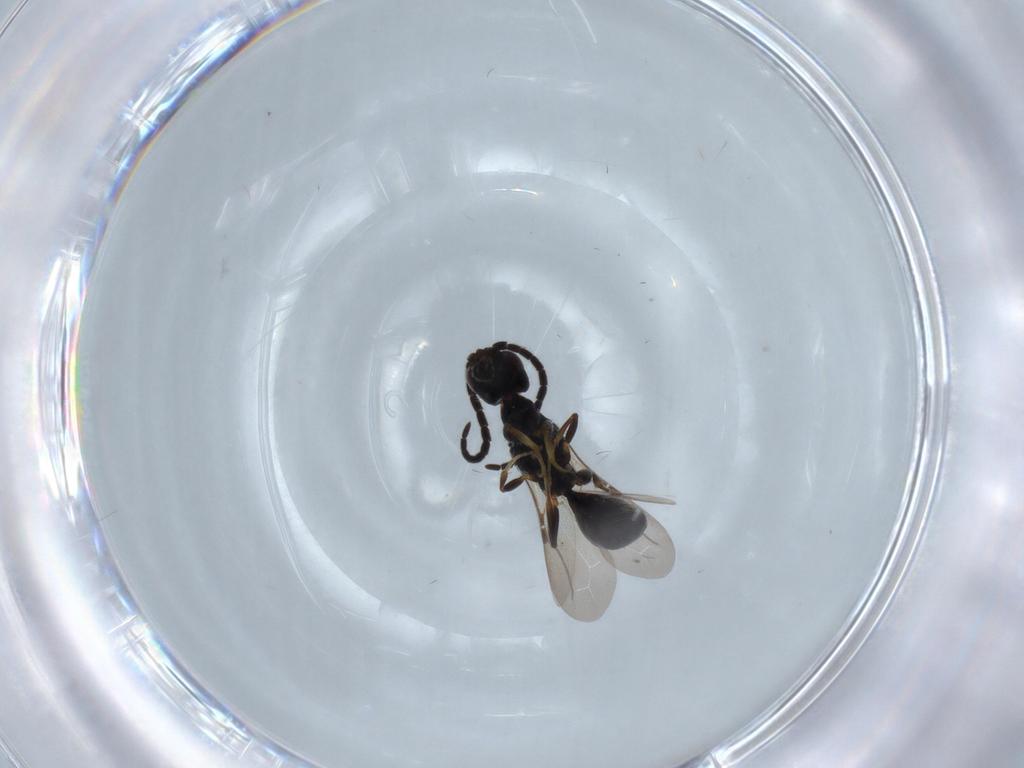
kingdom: Animalia
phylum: Arthropoda
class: Insecta
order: Hymenoptera
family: Bethylidae
